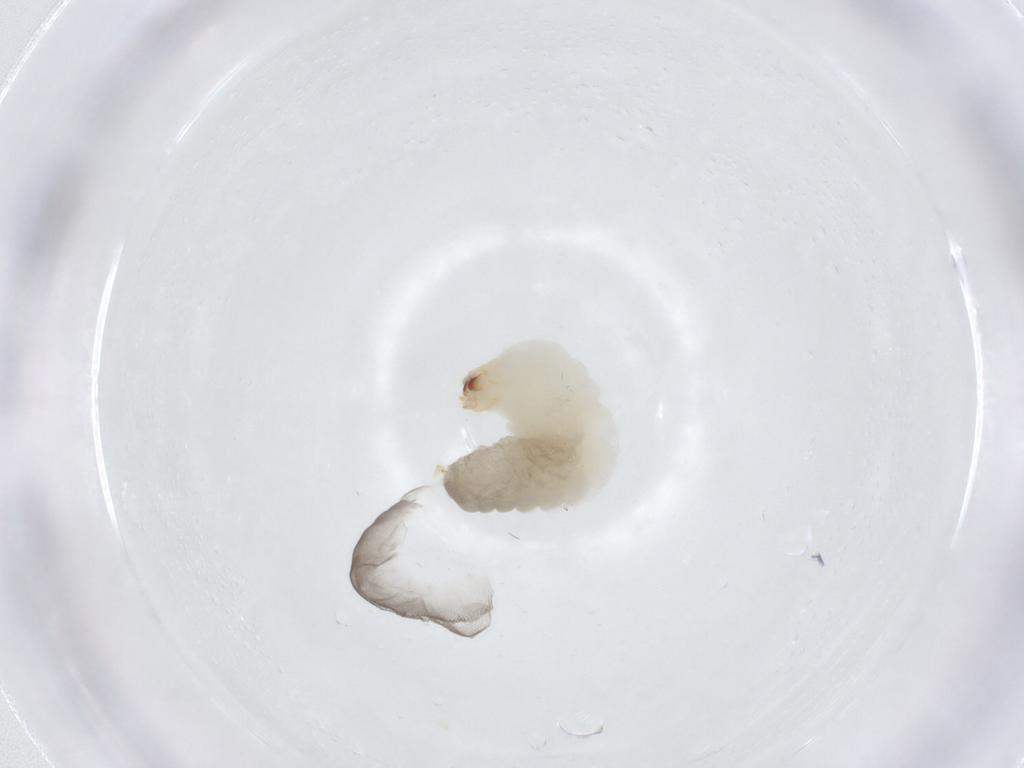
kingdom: Animalia
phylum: Arthropoda
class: Insecta
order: Hymenoptera
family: Dryinidae
